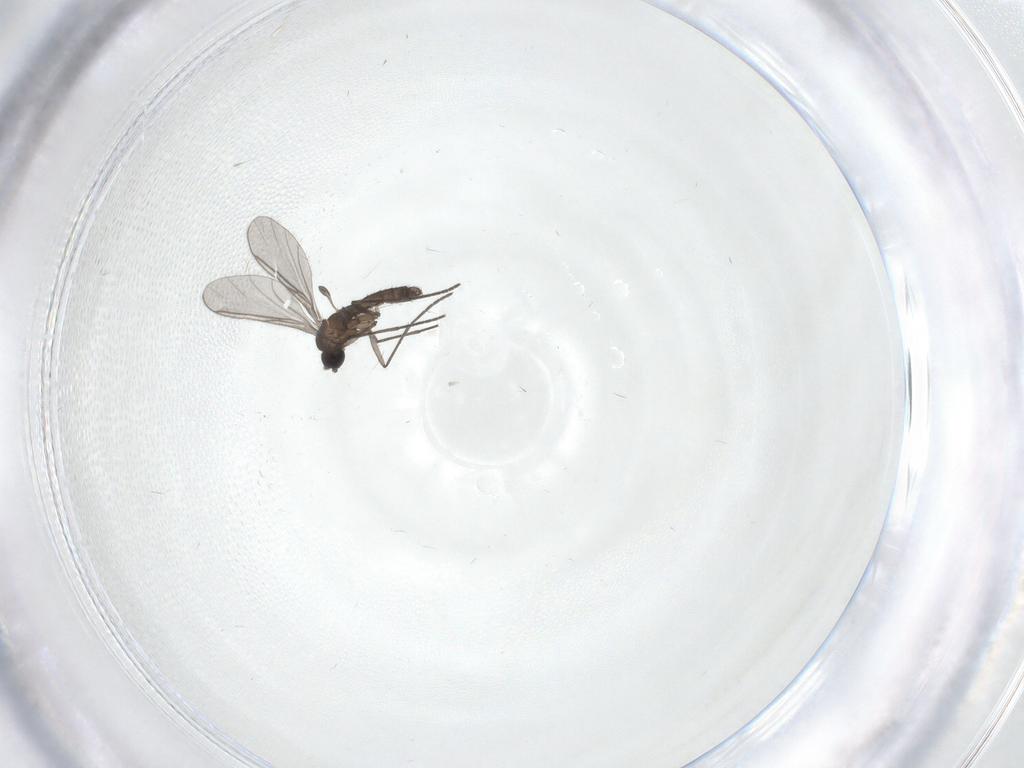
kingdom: Animalia
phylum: Arthropoda
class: Insecta
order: Diptera
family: Sciaridae
